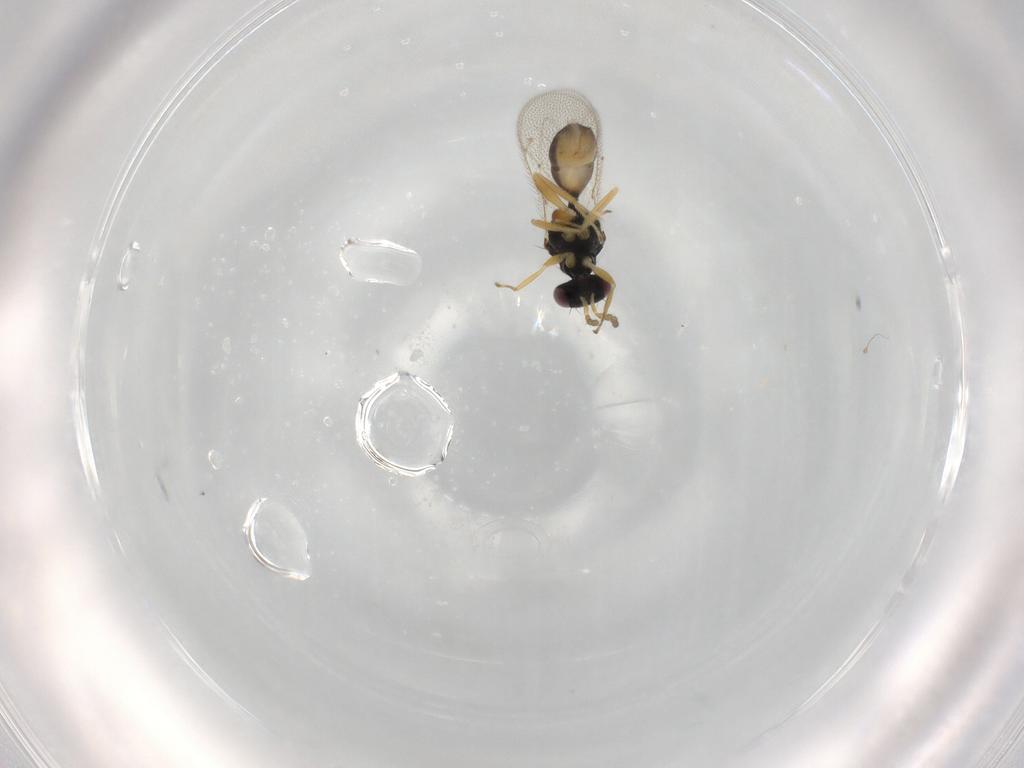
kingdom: Animalia
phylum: Arthropoda
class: Insecta
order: Hymenoptera
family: Eulophidae
